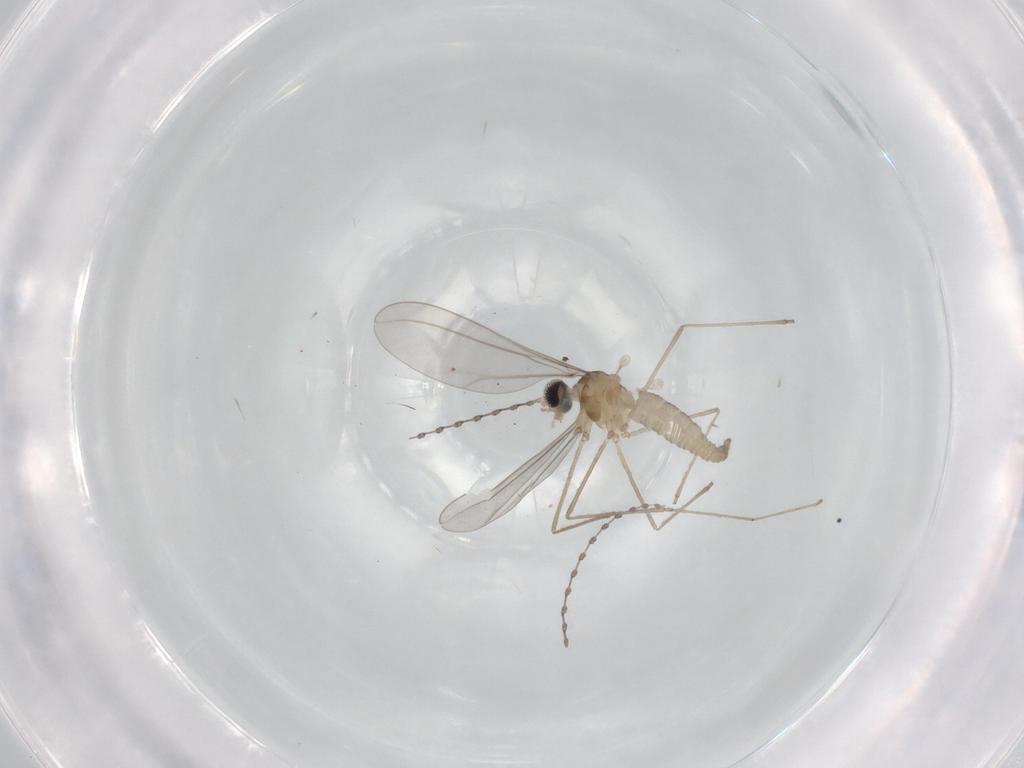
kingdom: Animalia
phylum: Arthropoda
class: Insecta
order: Diptera
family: Cecidomyiidae
